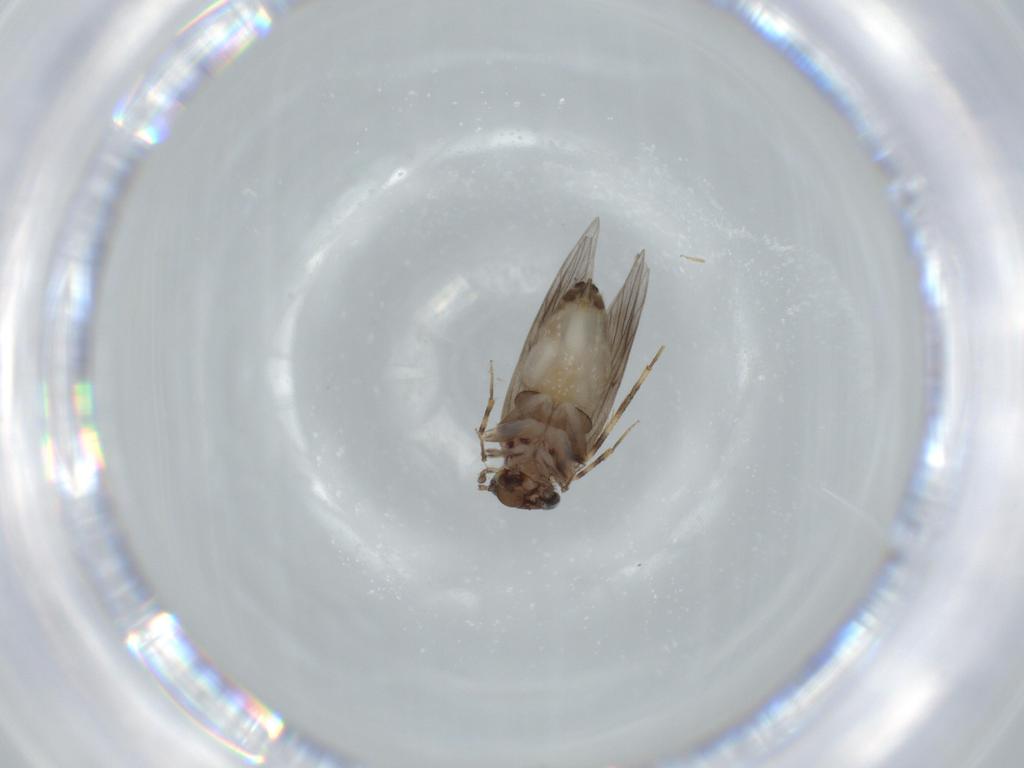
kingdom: Animalia
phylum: Arthropoda
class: Insecta
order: Psocodea
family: Lepidopsocidae
